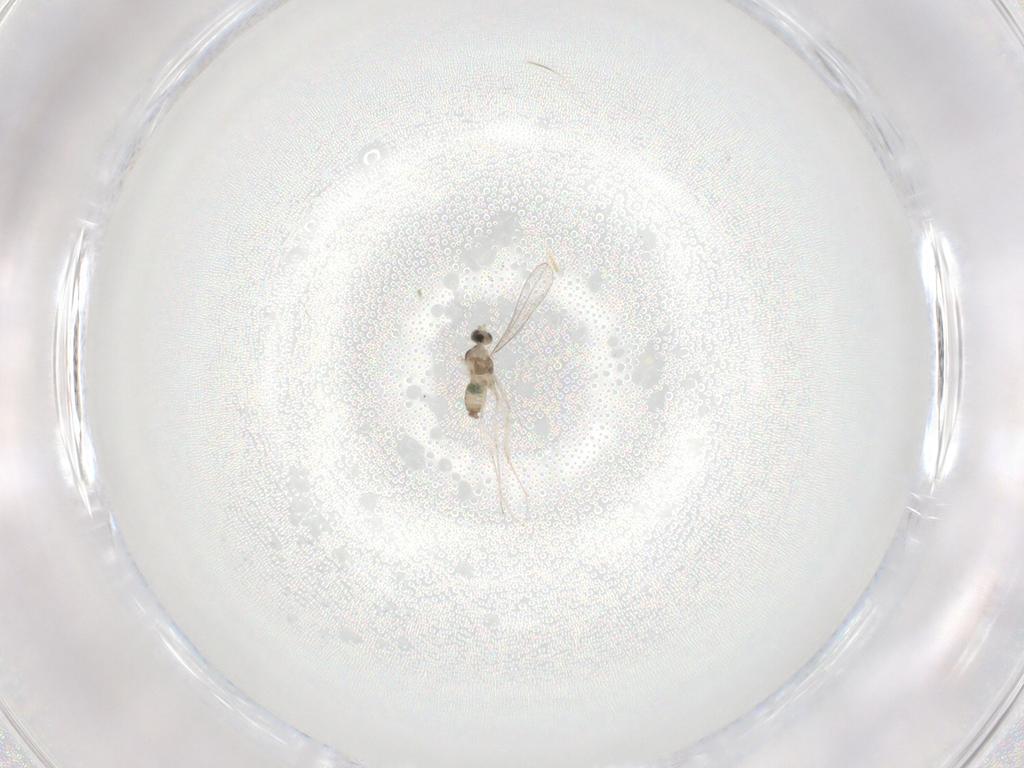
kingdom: Animalia
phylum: Arthropoda
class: Insecta
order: Diptera
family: Cecidomyiidae
